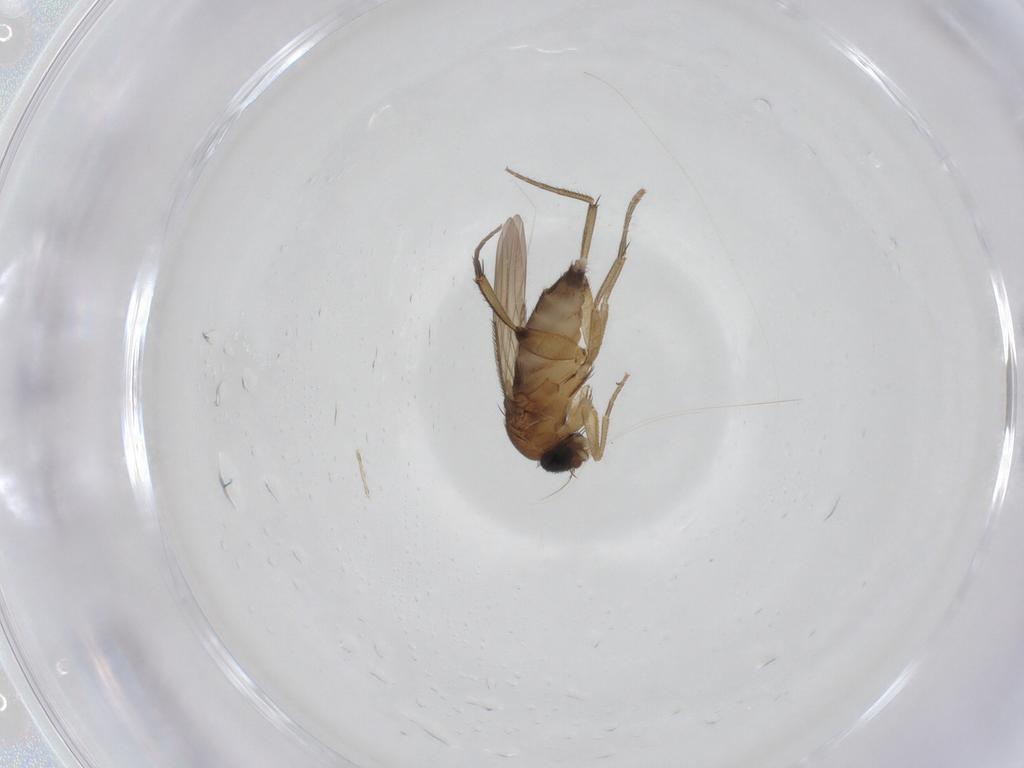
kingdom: Animalia
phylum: Arthropoda
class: Insecta
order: Diptera
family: Phoridae
